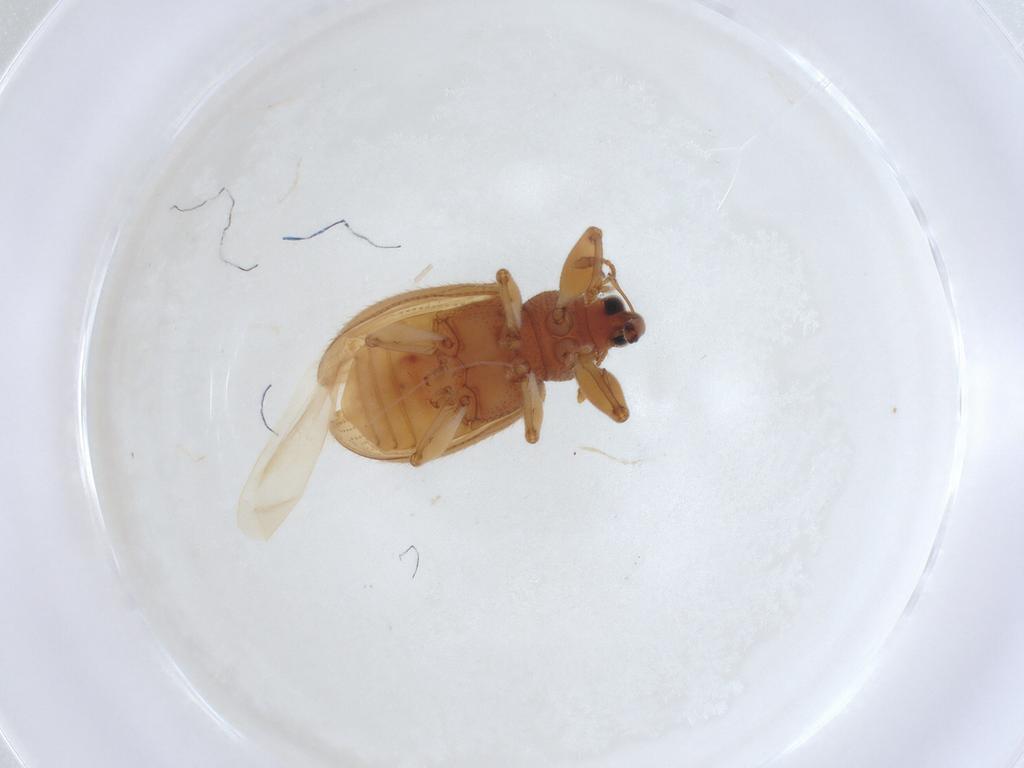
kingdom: Animalia
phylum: Arthropoda
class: Insecta
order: Coleoptera
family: Curculionidae
